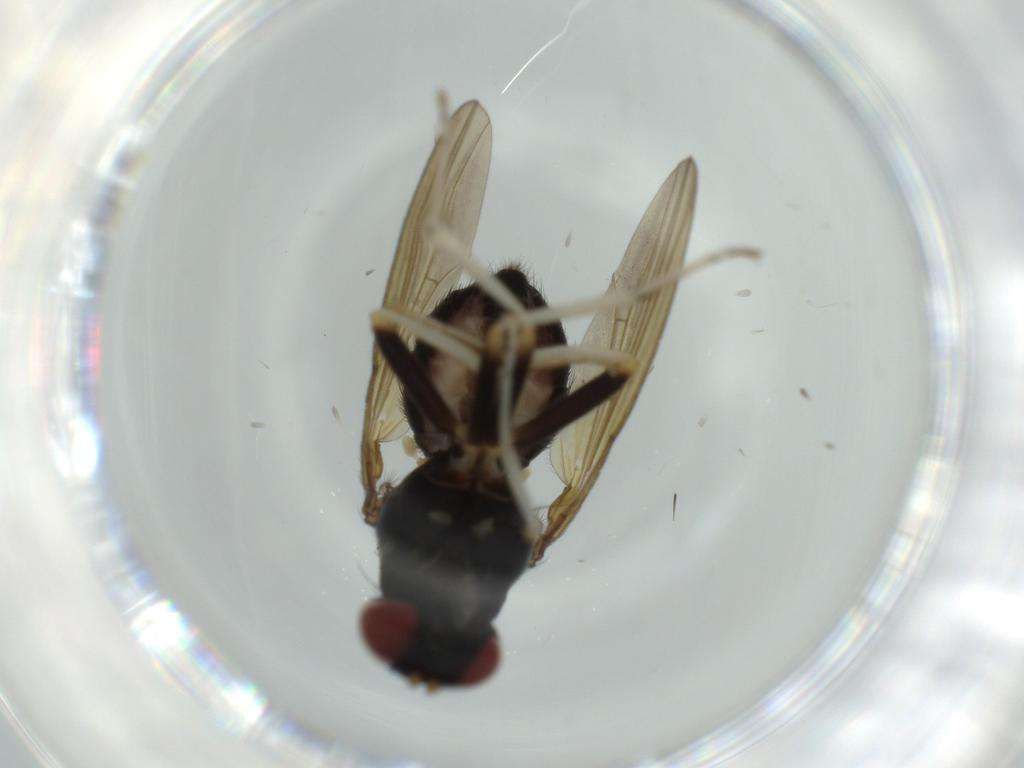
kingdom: Animalia
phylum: Arthropoda
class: Insecta
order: Diptera
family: Lauxaniidae
